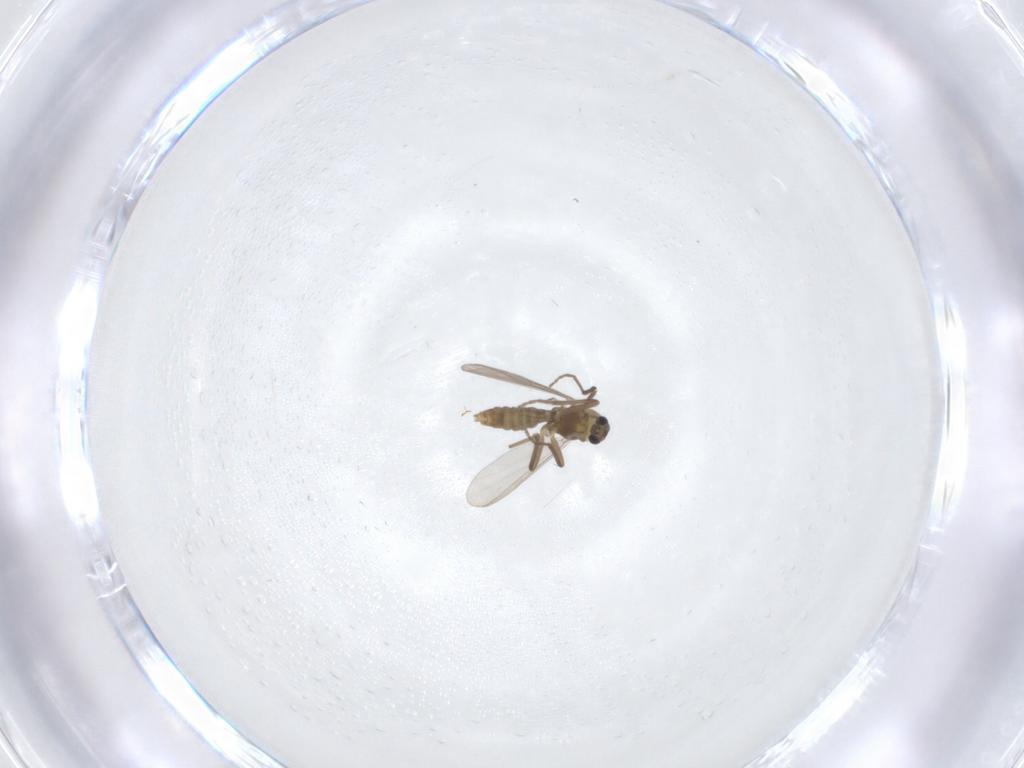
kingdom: Animalia
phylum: Arthropoda
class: Insecta
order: Diptera
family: Chironomidae
